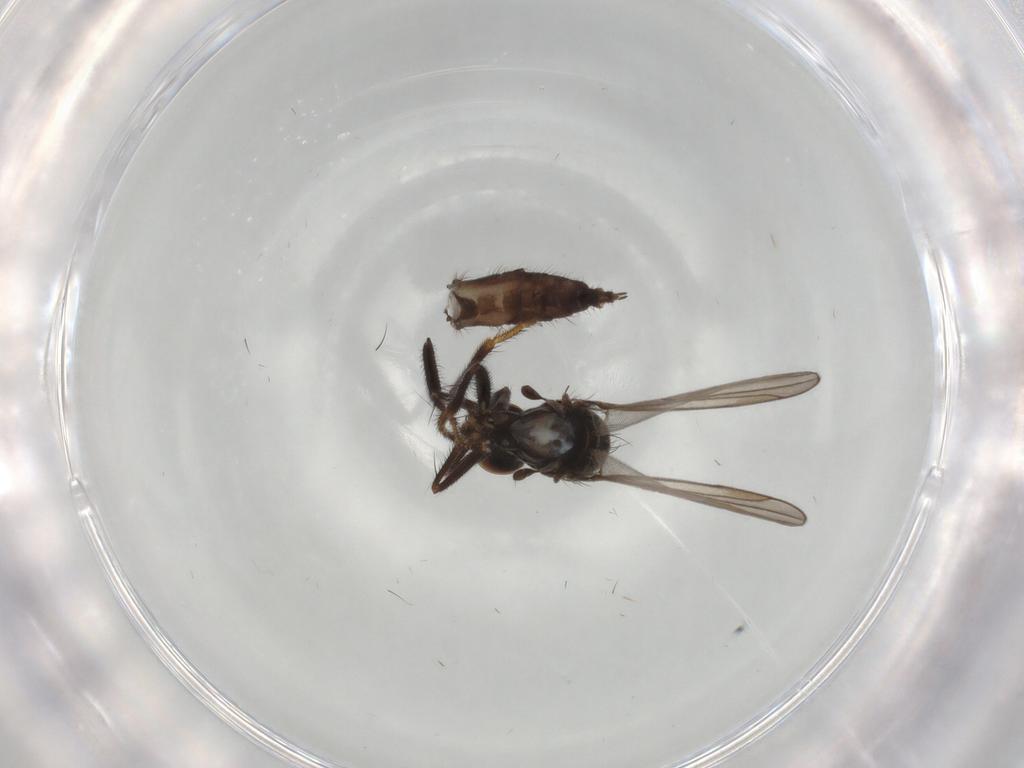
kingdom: Animalia
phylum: Arthropoda
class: Insecta
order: Diptera
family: Hybotidae
